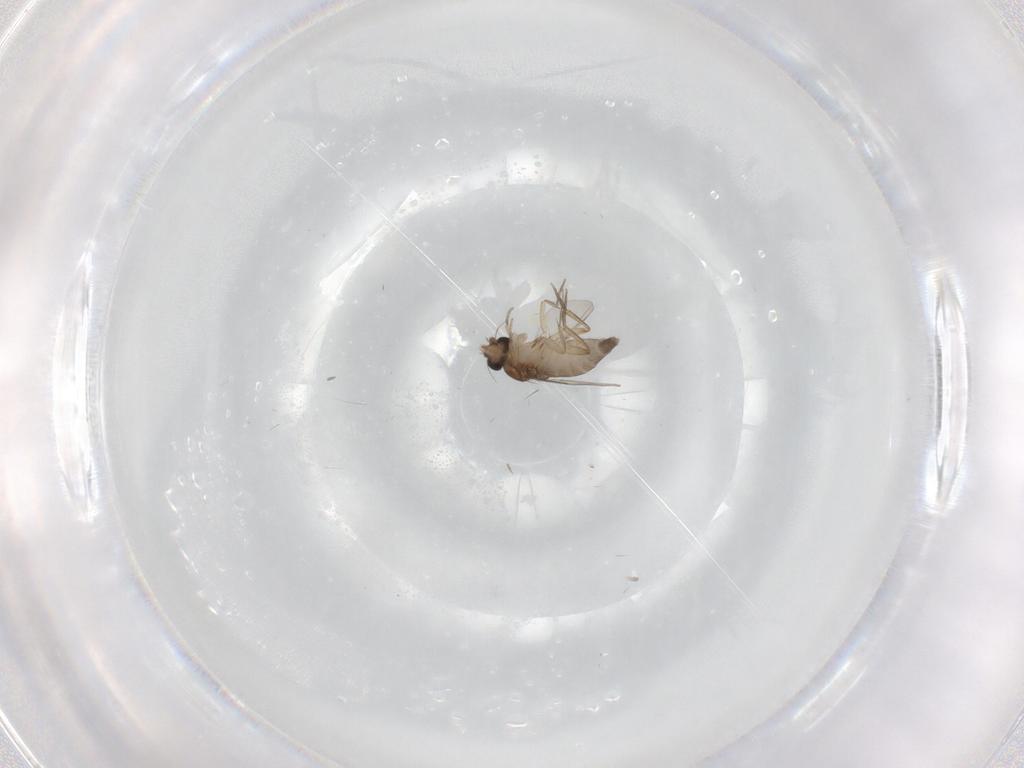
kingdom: Animalia
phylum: Arthropoda
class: Insecta
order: Diptera
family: Phoridae
